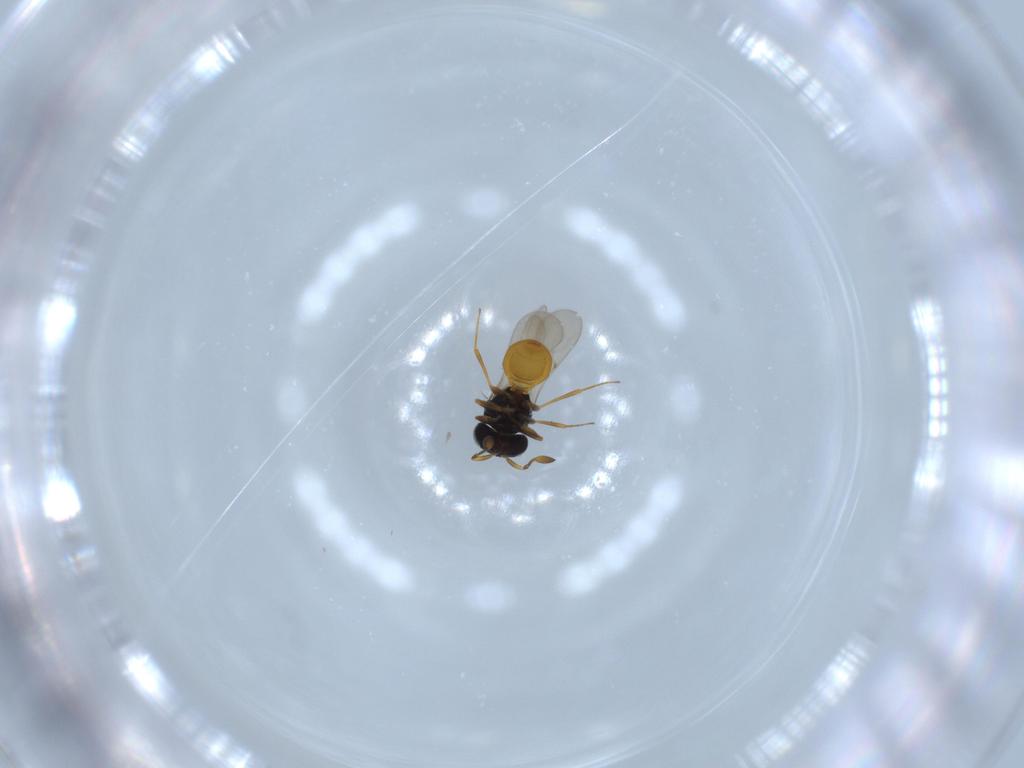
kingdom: Animalia
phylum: Arthropoda
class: Insecta
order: Hymenoptera
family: Scelionidae
